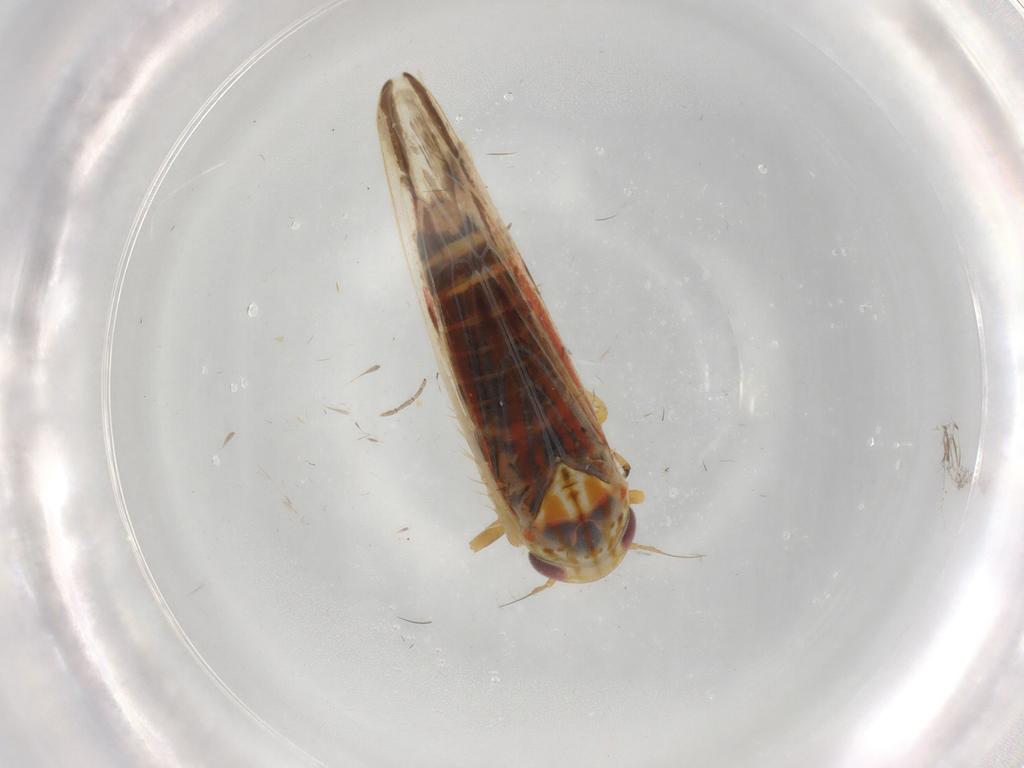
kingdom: Animalia
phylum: Arthropoda
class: Insecta
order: Hemiptera
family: Cicadellidae
